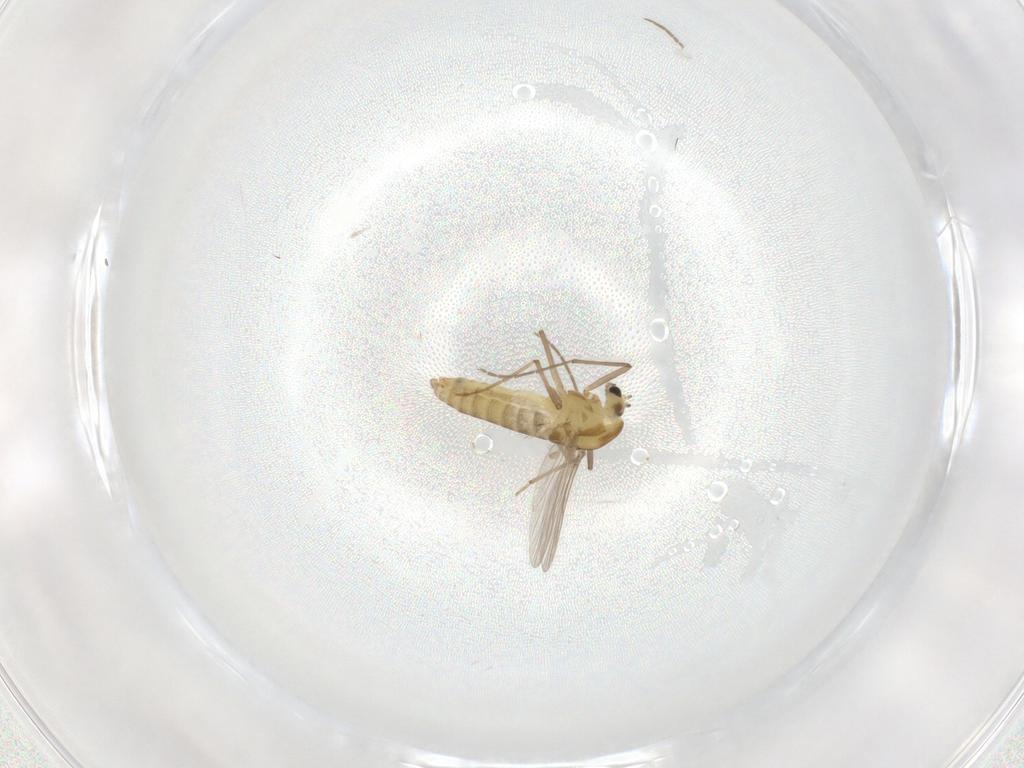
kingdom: Animalia
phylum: Arthropoda
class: Insecta
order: Diptera
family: Chironomidae
